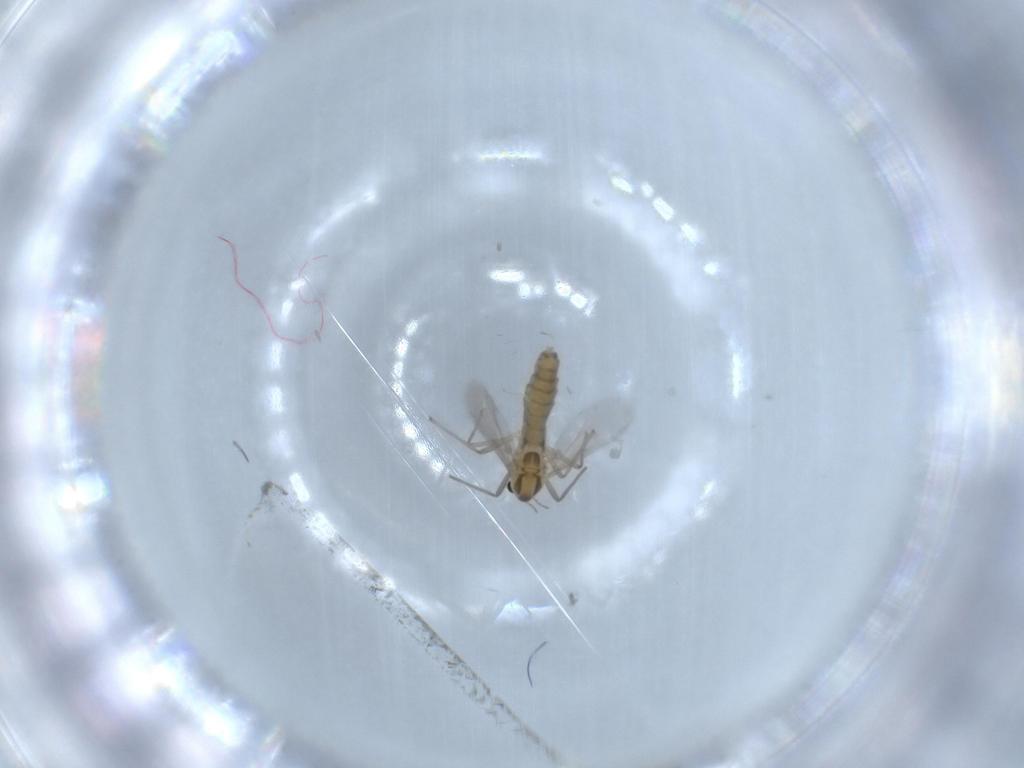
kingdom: Animalia
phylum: Arthropoda
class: Insecta
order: Diptera
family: Chironomidae
